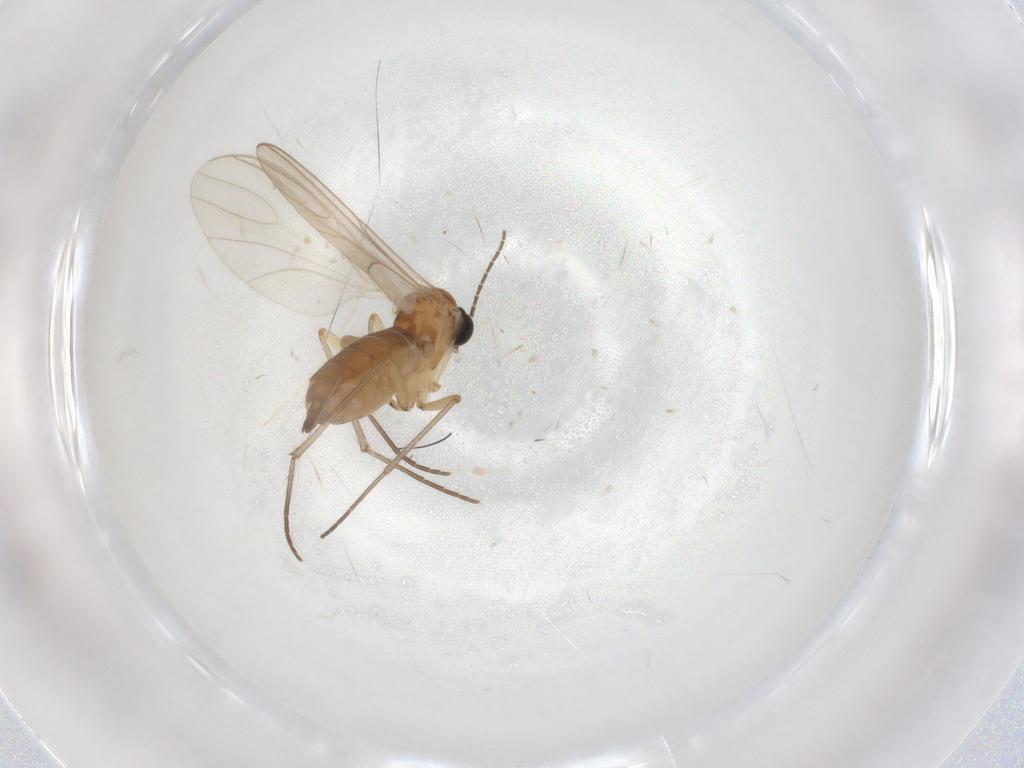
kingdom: Animalia
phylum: Arthropoda
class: Insecta
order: Diptera
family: Sciaridae
